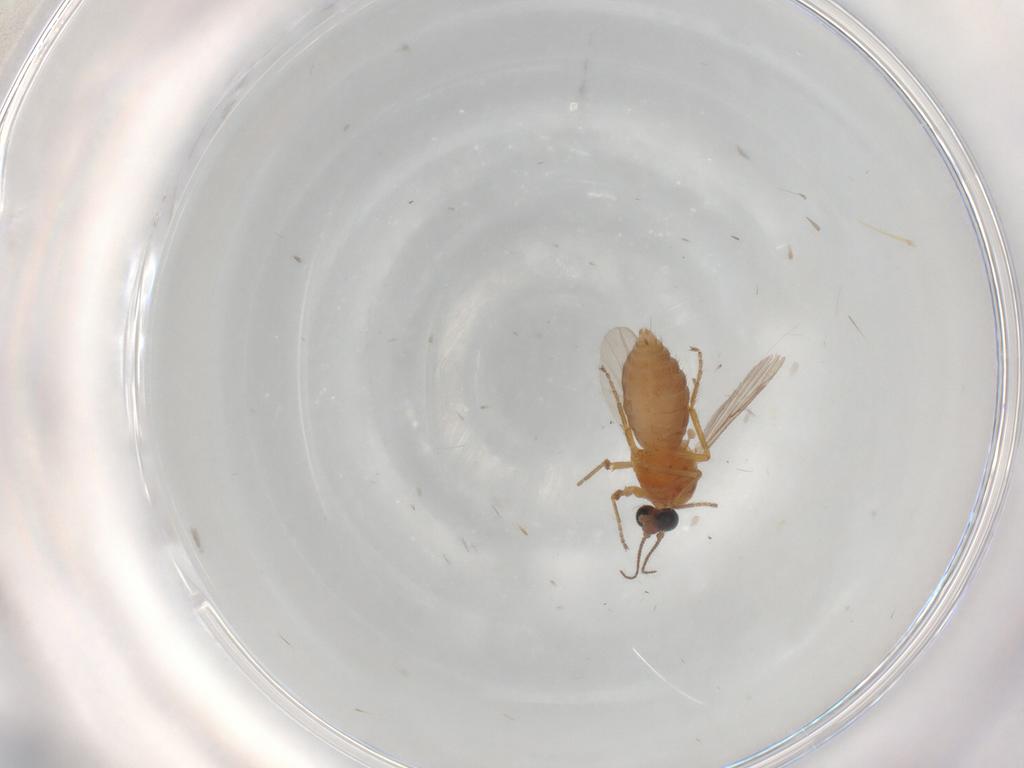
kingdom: Animalia
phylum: Arthropoda
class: Insecta
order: Diptera
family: Ceratopogonidae
